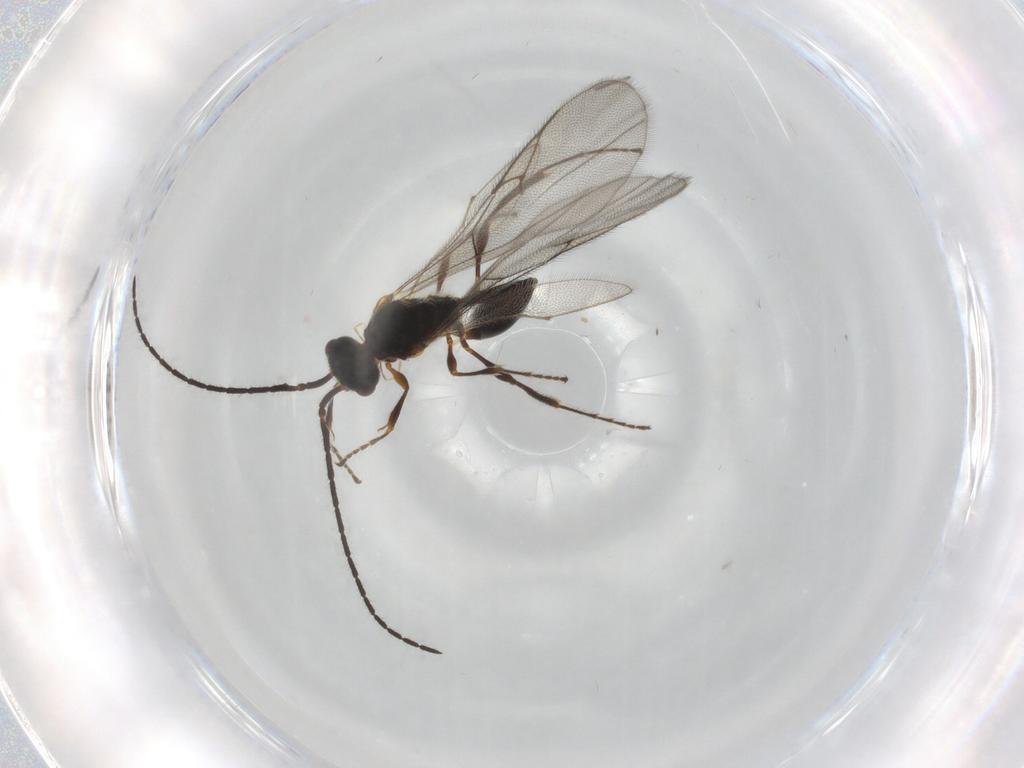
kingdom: Animalia
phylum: Arthropoda
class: Insecta
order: Hymenoptera
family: Diapriidae
